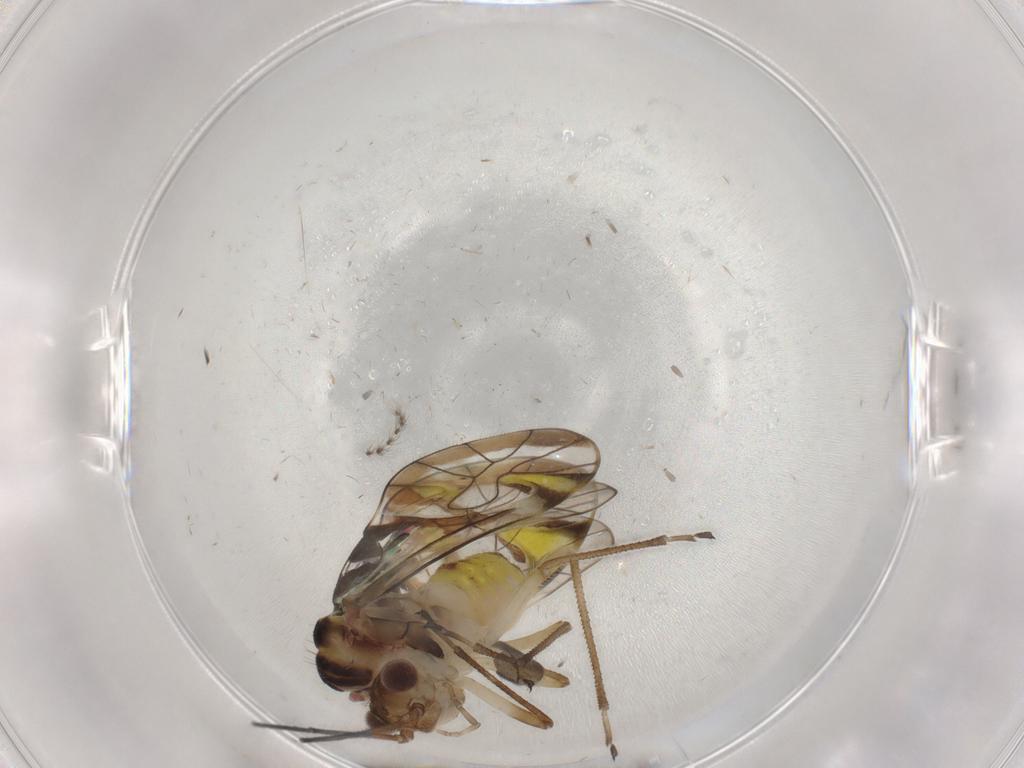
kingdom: Animalia
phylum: Arthropoda
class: Insecta
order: Psocodea
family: Amphipsocidae
